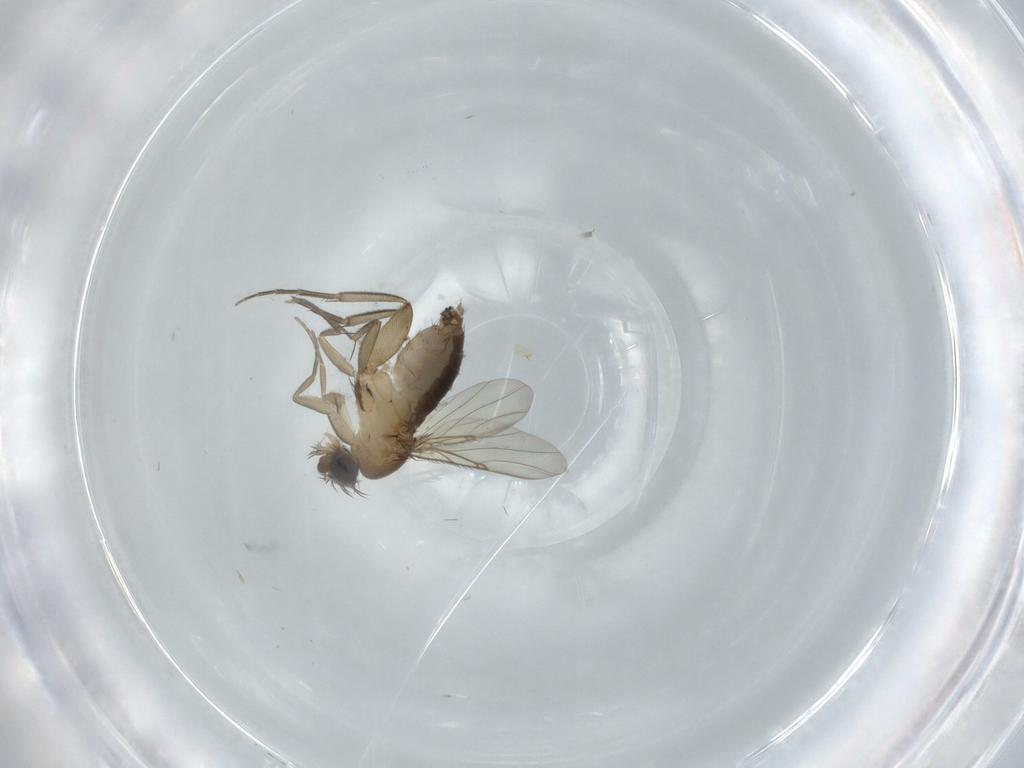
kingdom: Animalia
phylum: Arthropoda
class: Insecta
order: Diptera
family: Phoridae
